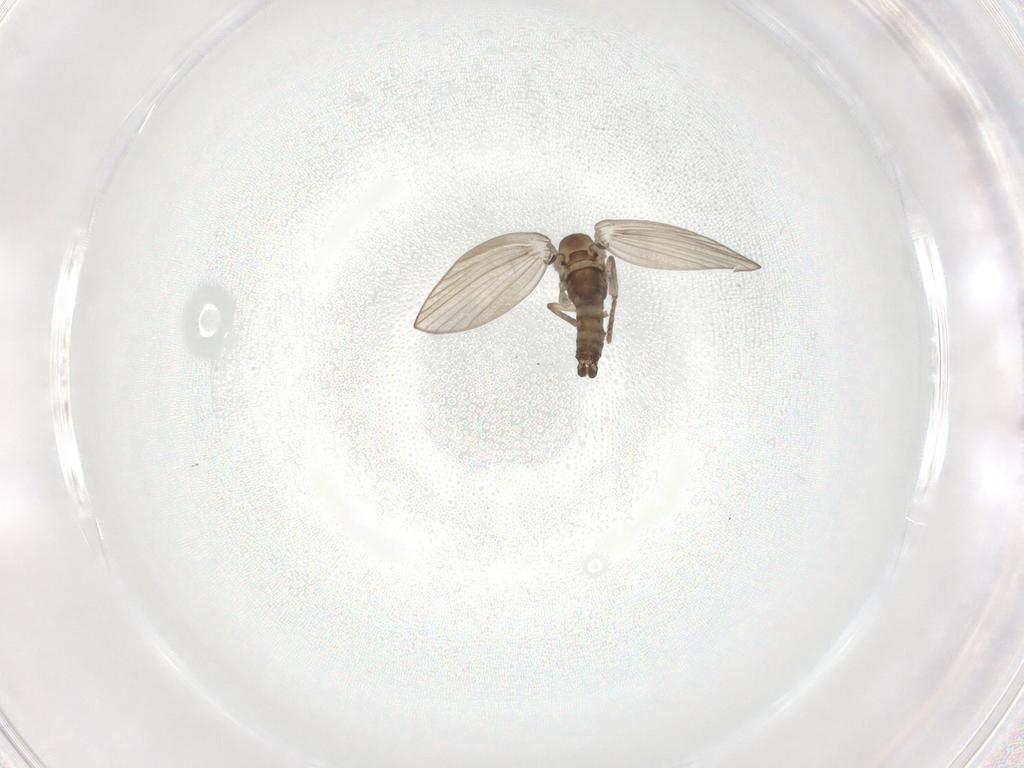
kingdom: Animalia
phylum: Arthropoda
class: Insecta
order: Diptera
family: Psychodidae
